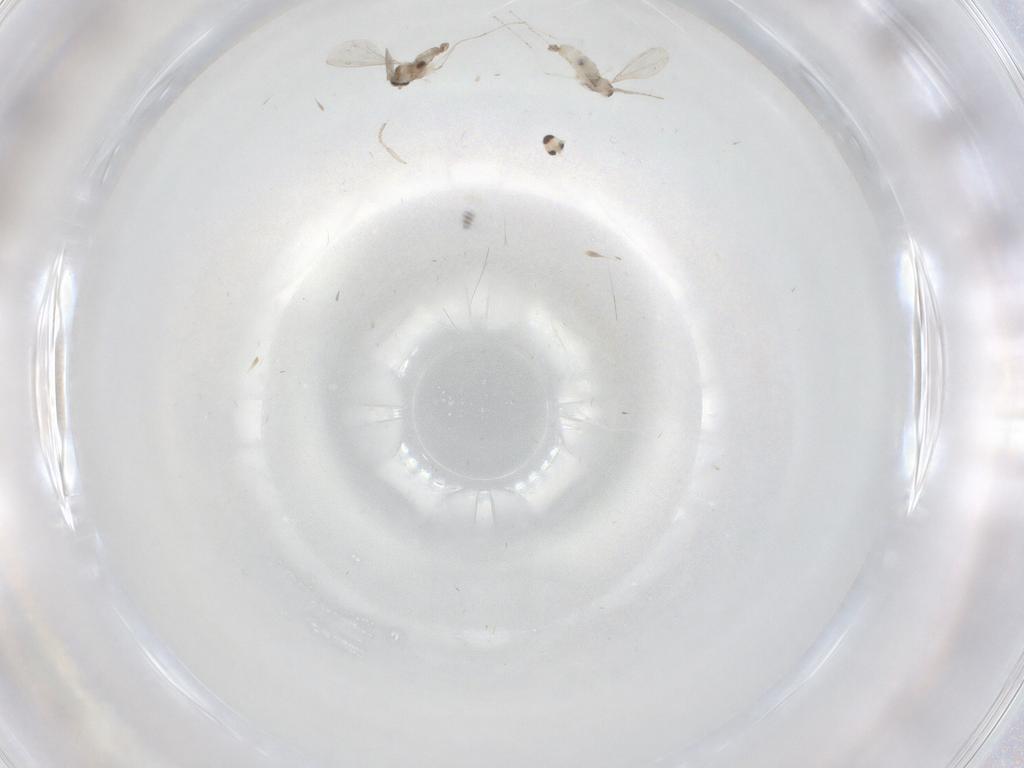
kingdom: Animalia
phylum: Arthropoda
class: Insecta
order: Diptera
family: Cecidomyiidae
